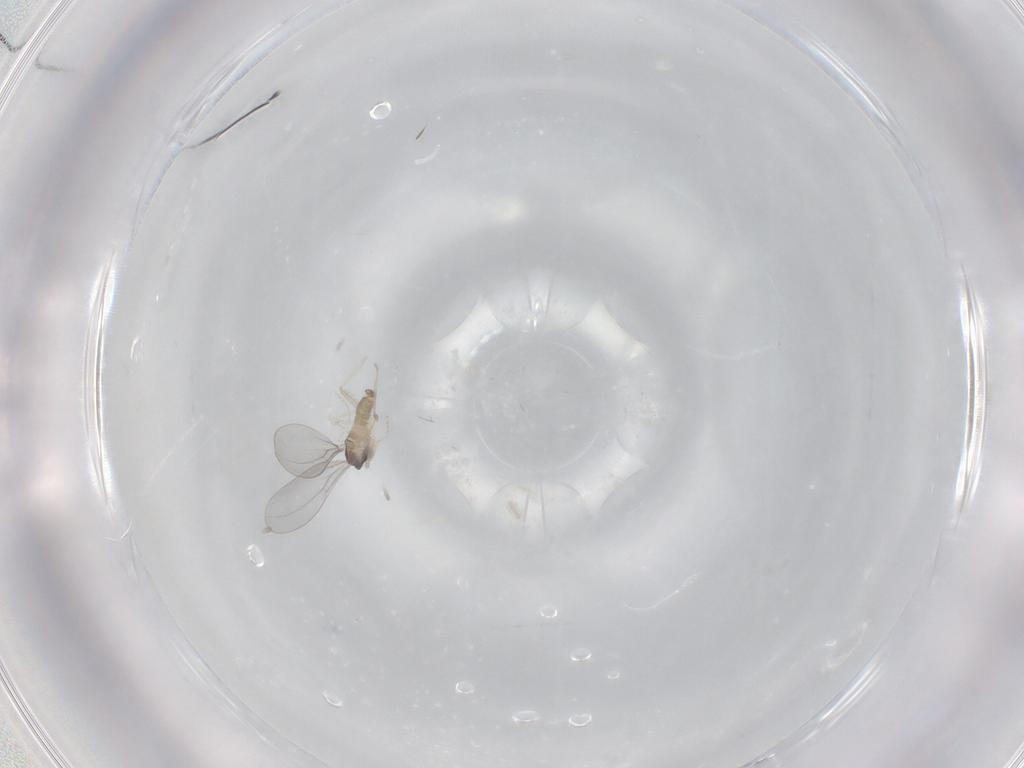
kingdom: Animalia
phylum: Arthropoda
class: Insecta
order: Diptera
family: Cecidomyiidae
